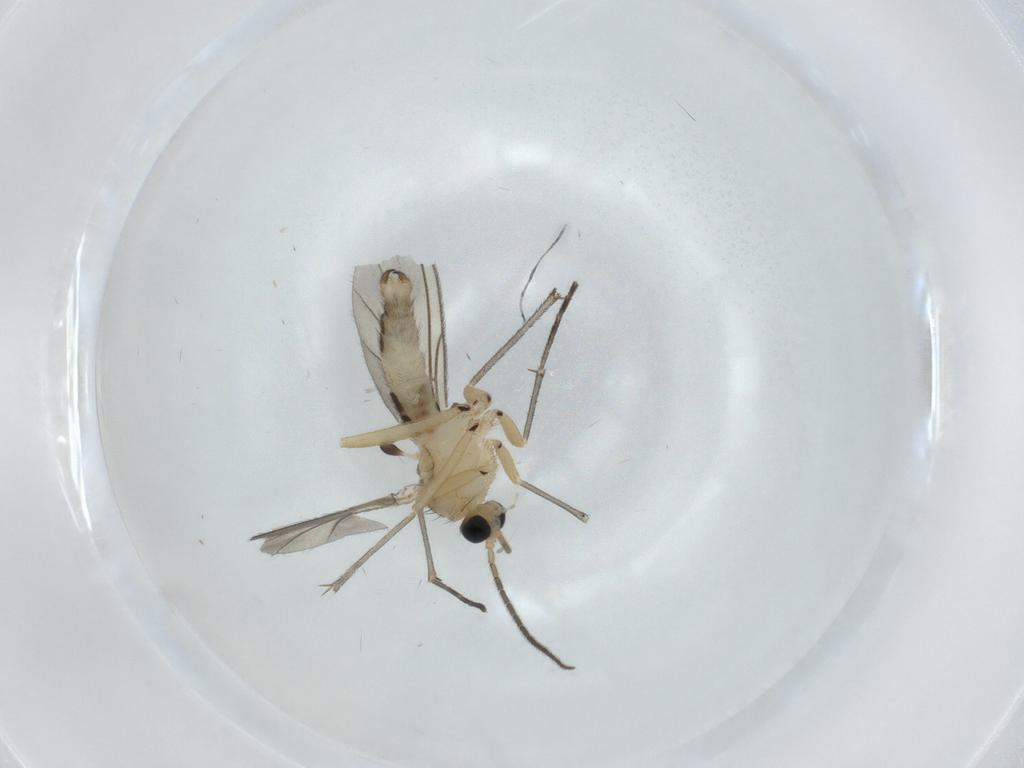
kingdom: Animalia
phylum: Arthropoda
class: Insecta
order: Diptera
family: Sciaridae
